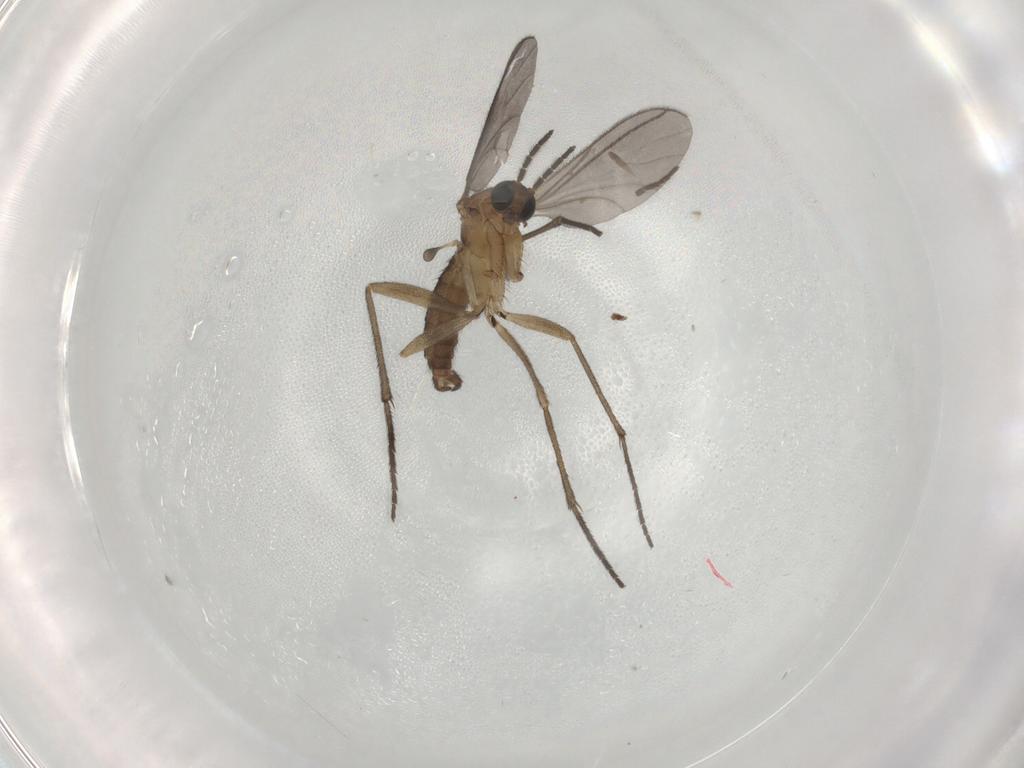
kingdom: Animalia
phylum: Arthropoda
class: Insecta
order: Diptera
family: Sciaridae
